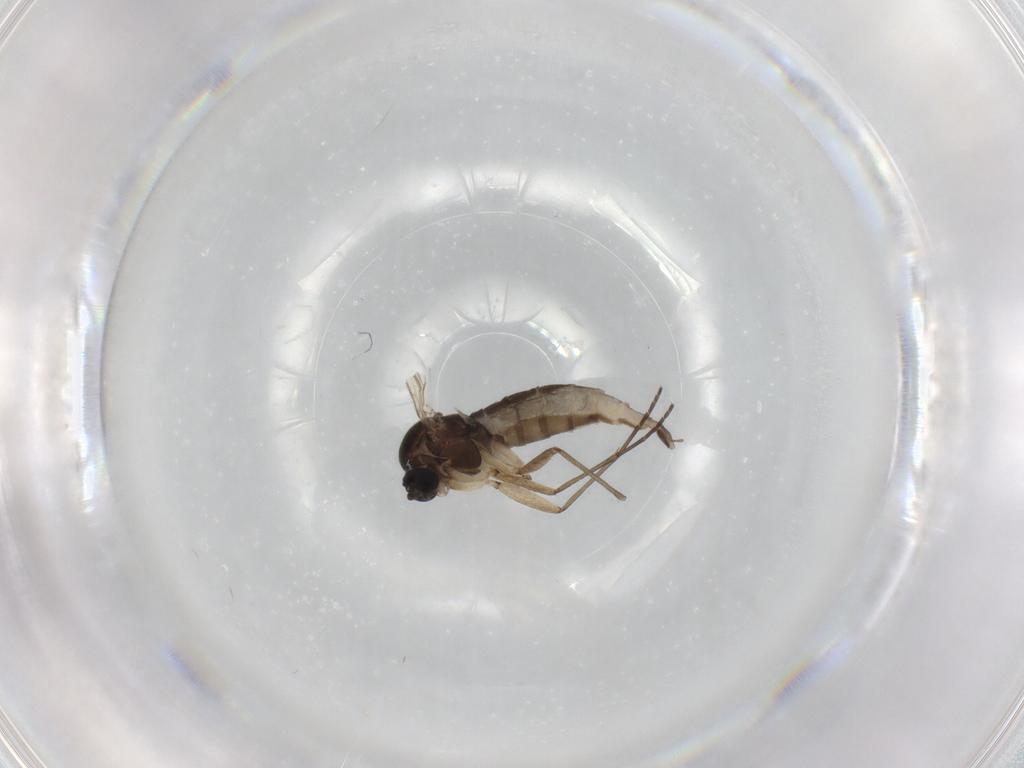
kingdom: Animalia
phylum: Arthropoda
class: Insecta
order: Diptera
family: Sciaridae
